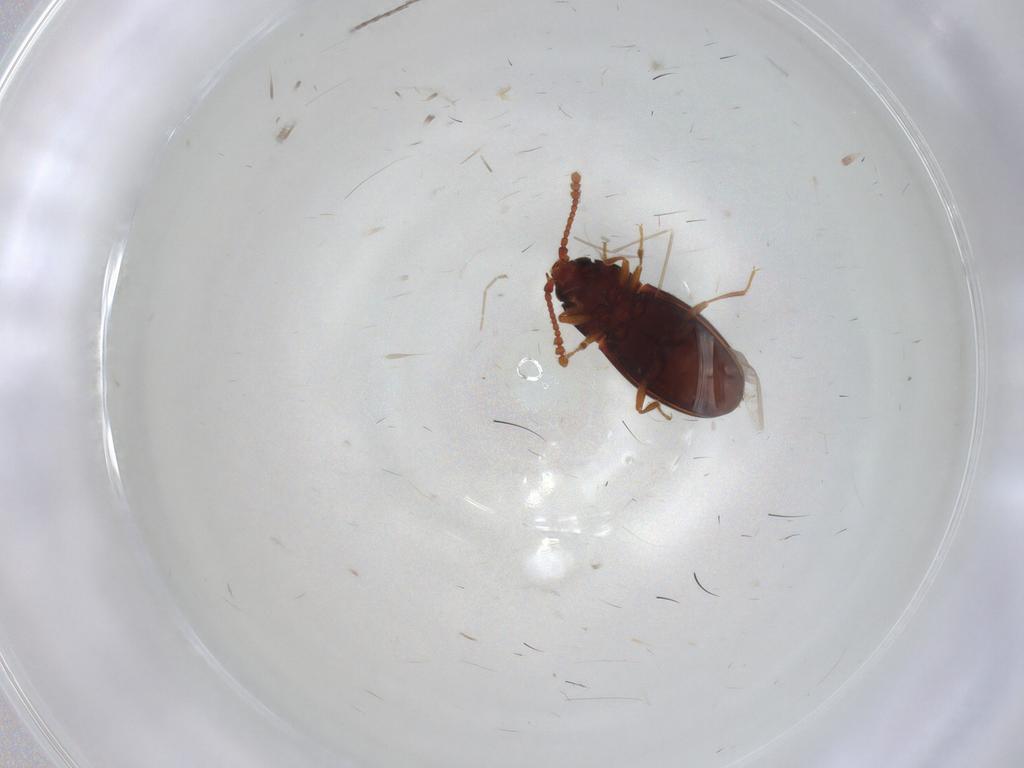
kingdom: Animalia
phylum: Arthropoda
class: Insecta
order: Coleoptera
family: Cryptophagidae
